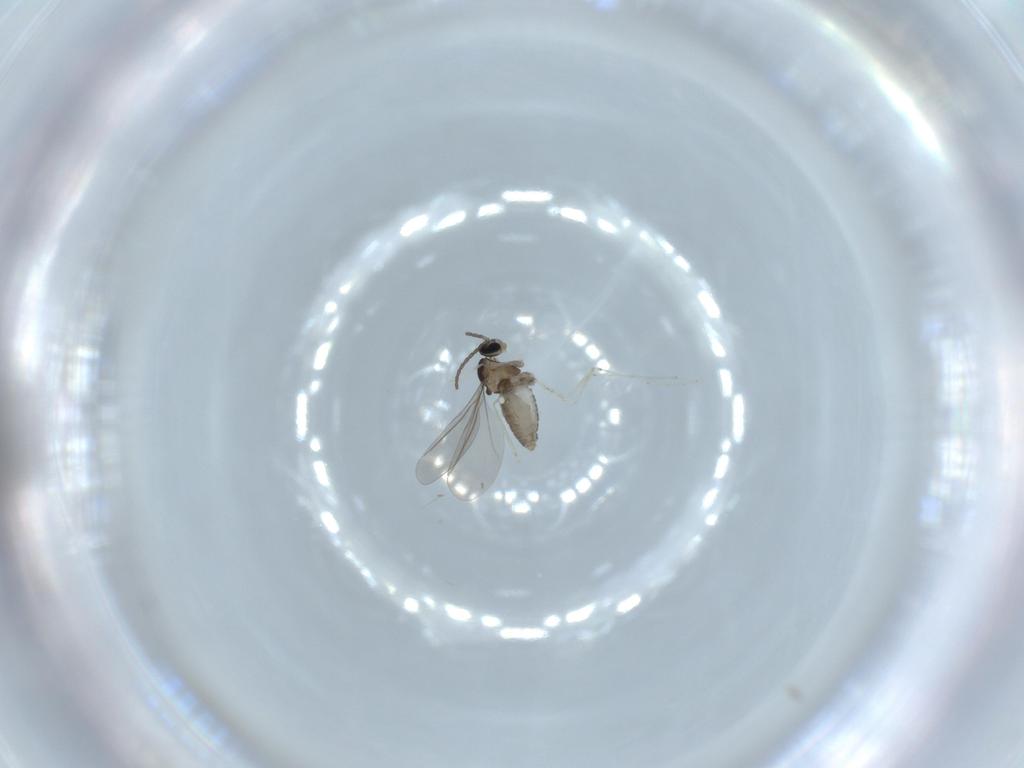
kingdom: Animalia
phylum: Arthropoda
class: Insecta
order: Diptera
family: Cecidomyiidae
